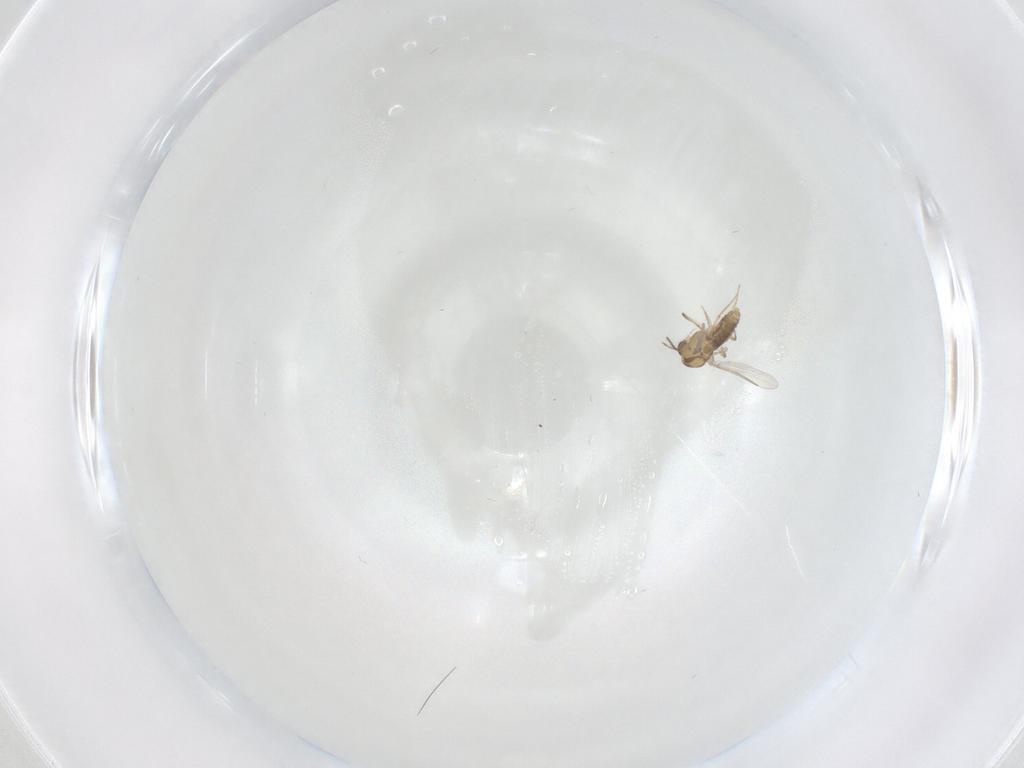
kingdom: Animalia
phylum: Arthropoda
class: Insecta
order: Diptera
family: Chironomidae
